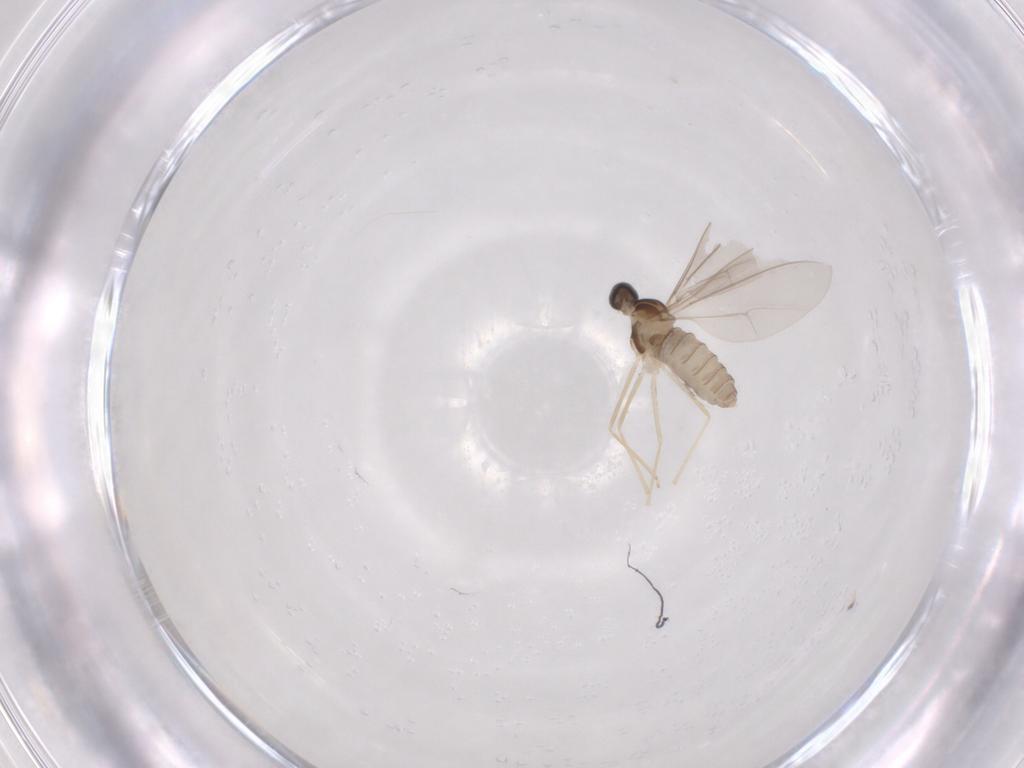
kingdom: Animalia
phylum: Arthropoda
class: Insecta
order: Diptera
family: Cecidomyiidae
